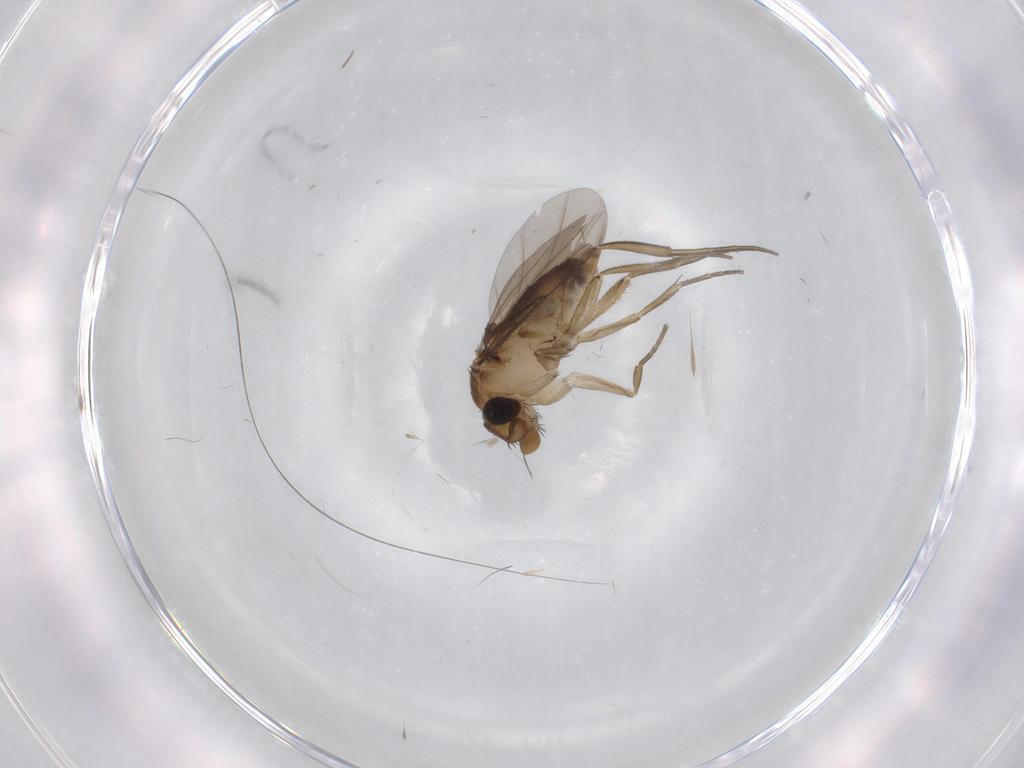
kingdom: Animalia
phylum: Arthropoda
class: Insecta
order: Diptera
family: Phoridae
